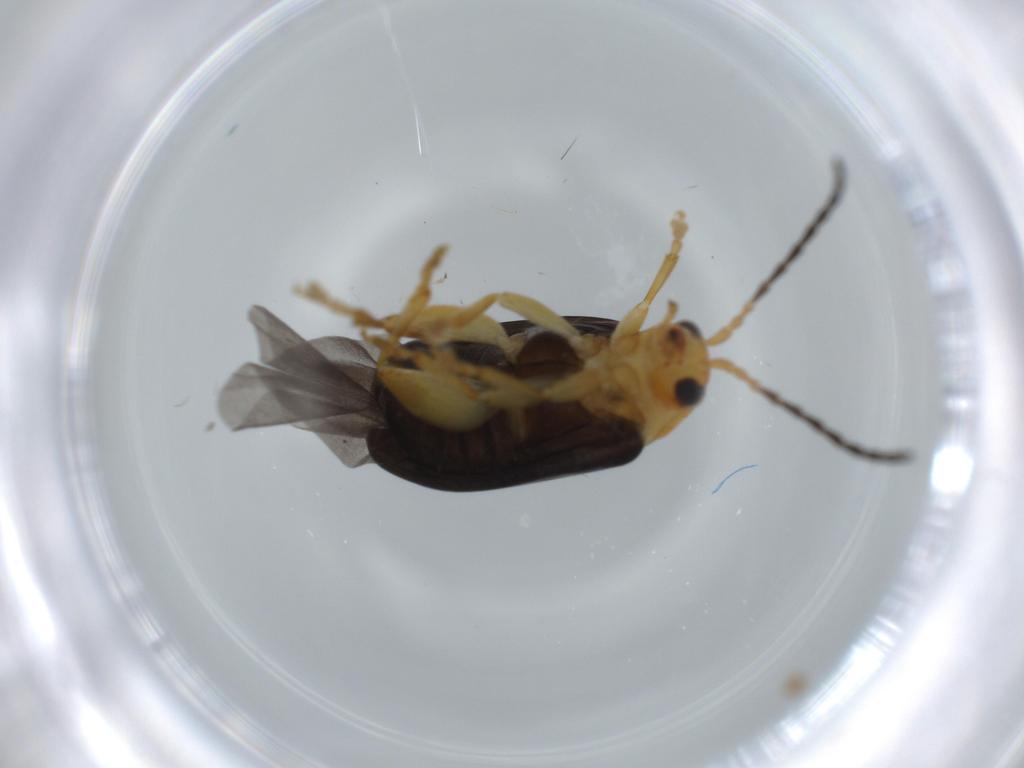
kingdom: Animalia
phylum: Arthropoda
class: Insecta
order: Coleoptera
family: Chrysomelidae
